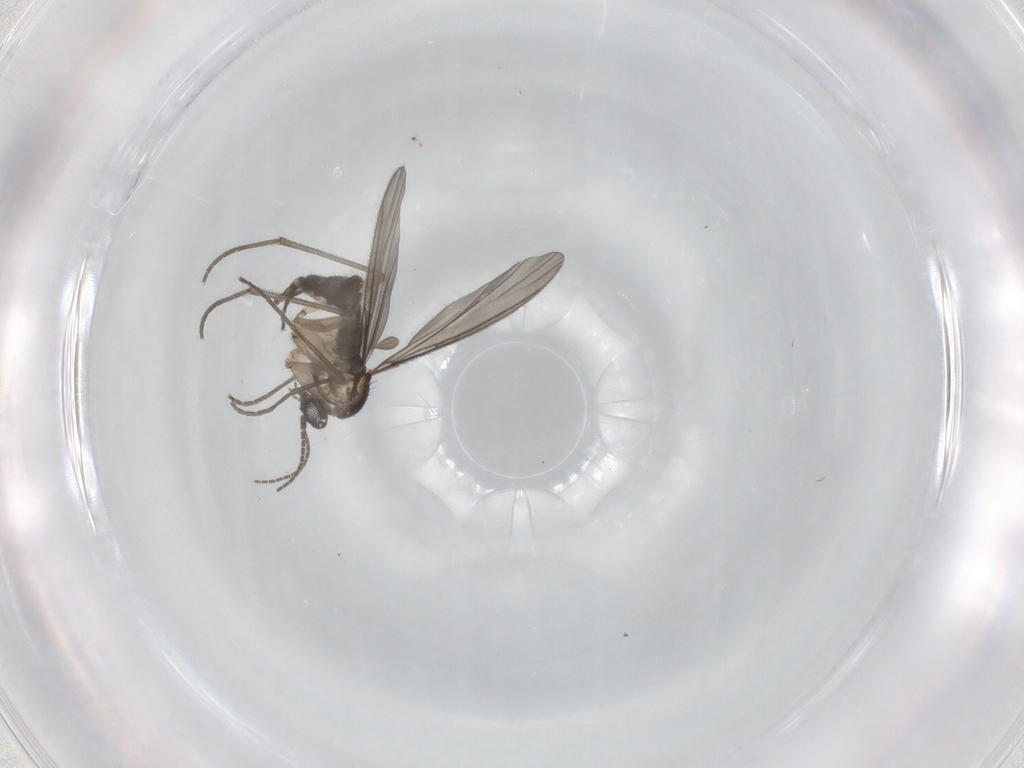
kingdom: Animalia
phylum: Arthropoda
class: Insecta
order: Diptera
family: Sciaridae
